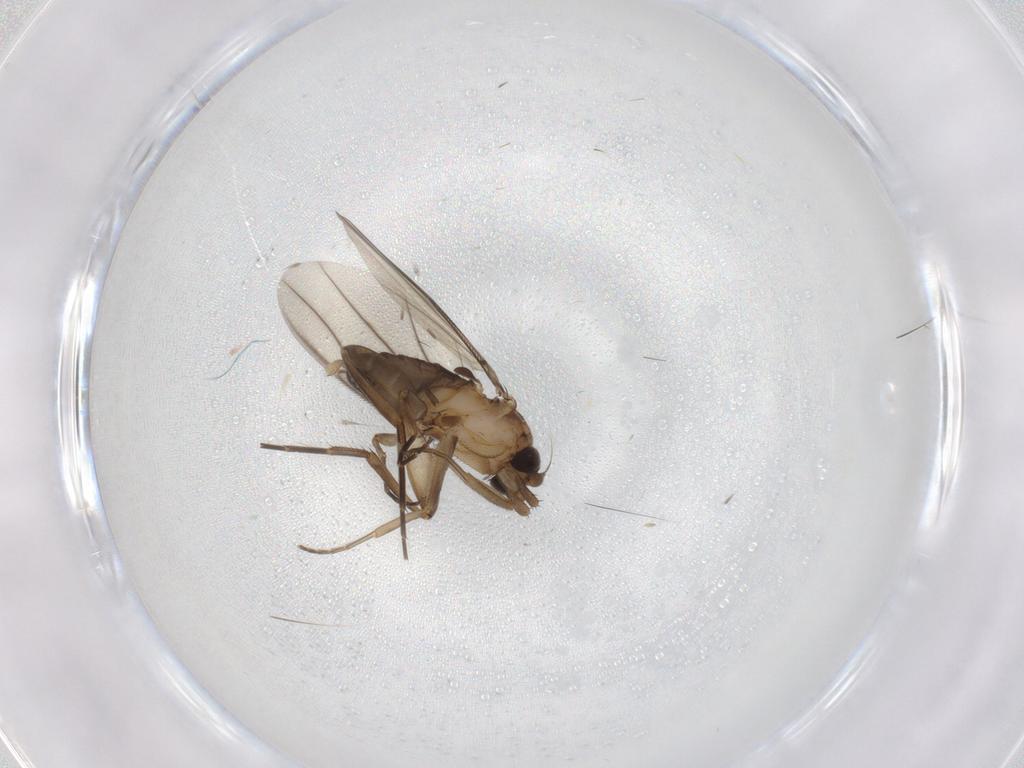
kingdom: Animalia
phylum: Arthropoda
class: Insecta
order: Diptera
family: Phoridae
